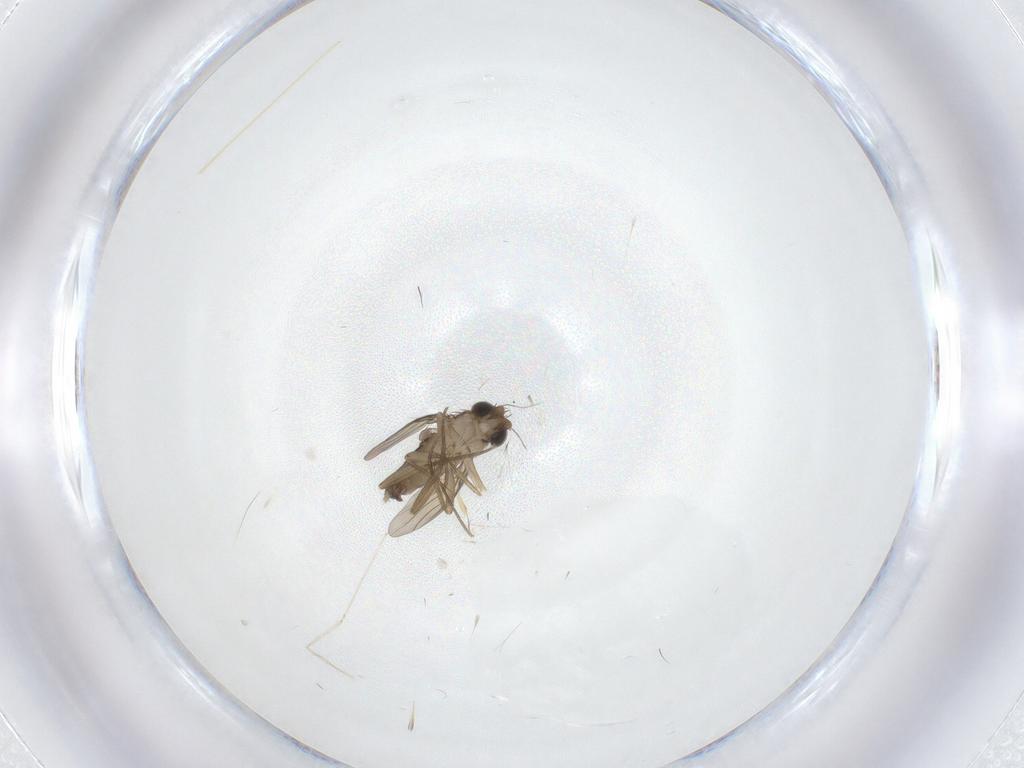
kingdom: Animalia
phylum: Arthropoda
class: Insecta
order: Diptera
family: Phoridae
